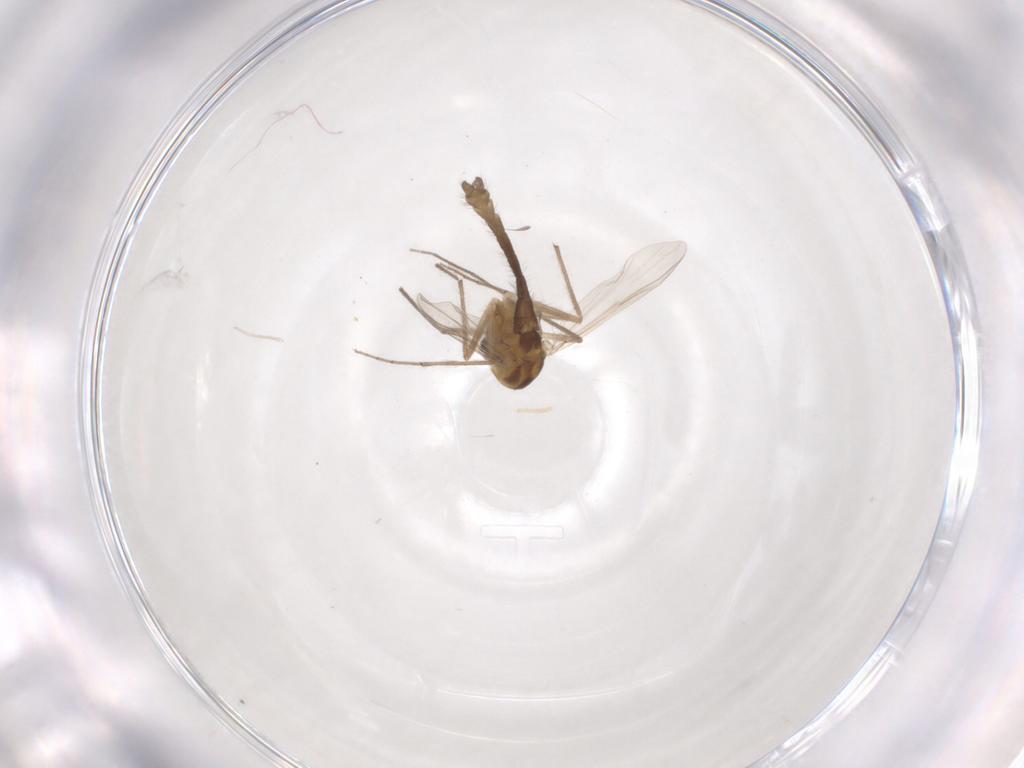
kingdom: Animalia
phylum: Arthropoda
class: Insecta
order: Diptera
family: Chironomidae
